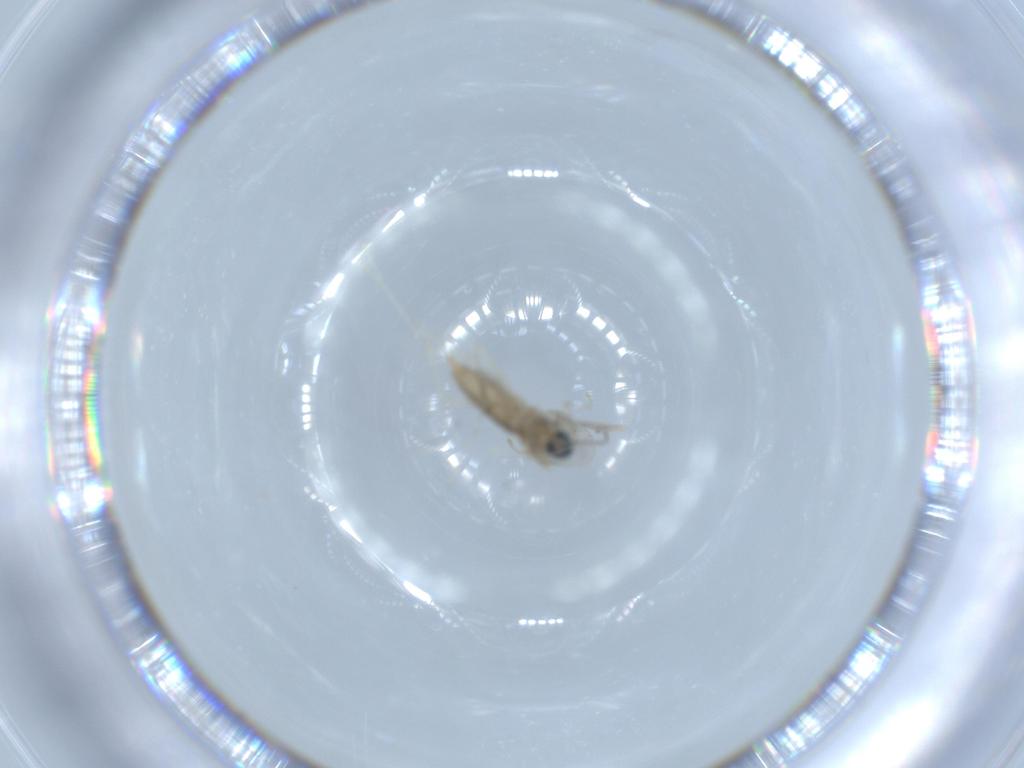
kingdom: Animalia
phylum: Arthropoda
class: Insecta
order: Diptera
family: Cecidomyiidae
